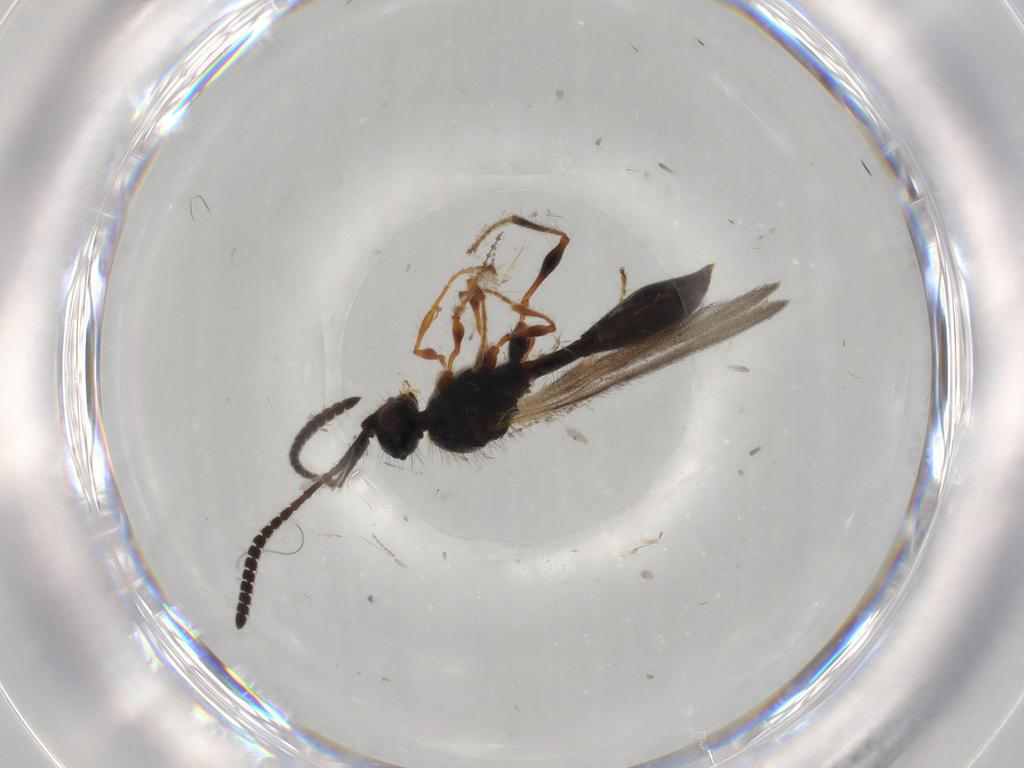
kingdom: Animalia
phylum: Arthropoda
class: Insecta
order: Hymenoptera
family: Diapriidae
